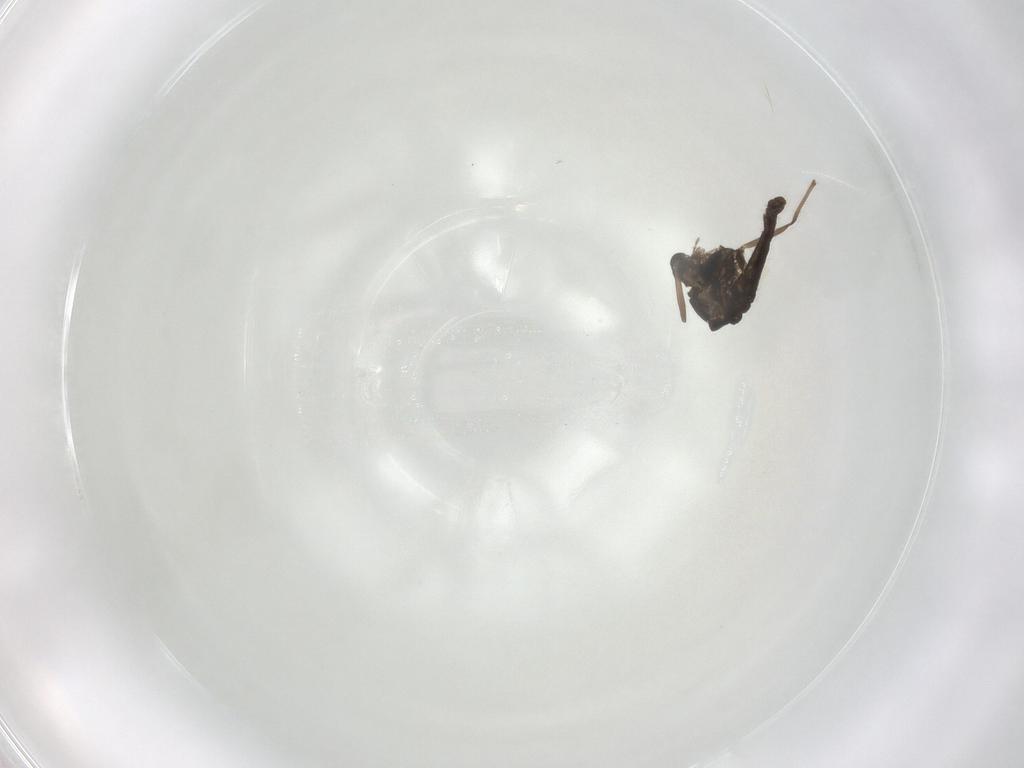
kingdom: Animalia
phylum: Arthropoda
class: Insecta
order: Diptera
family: Chironomidae
